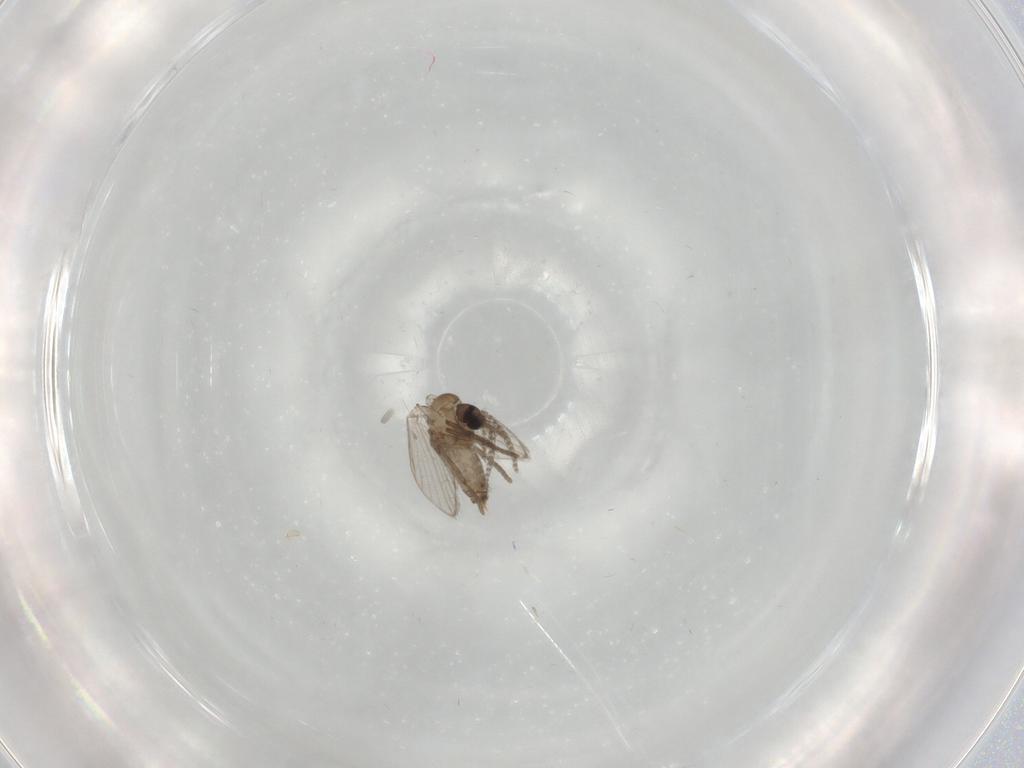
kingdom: Animalia
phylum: Arthropoda
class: Insecta
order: Diptera
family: Psychodidae
